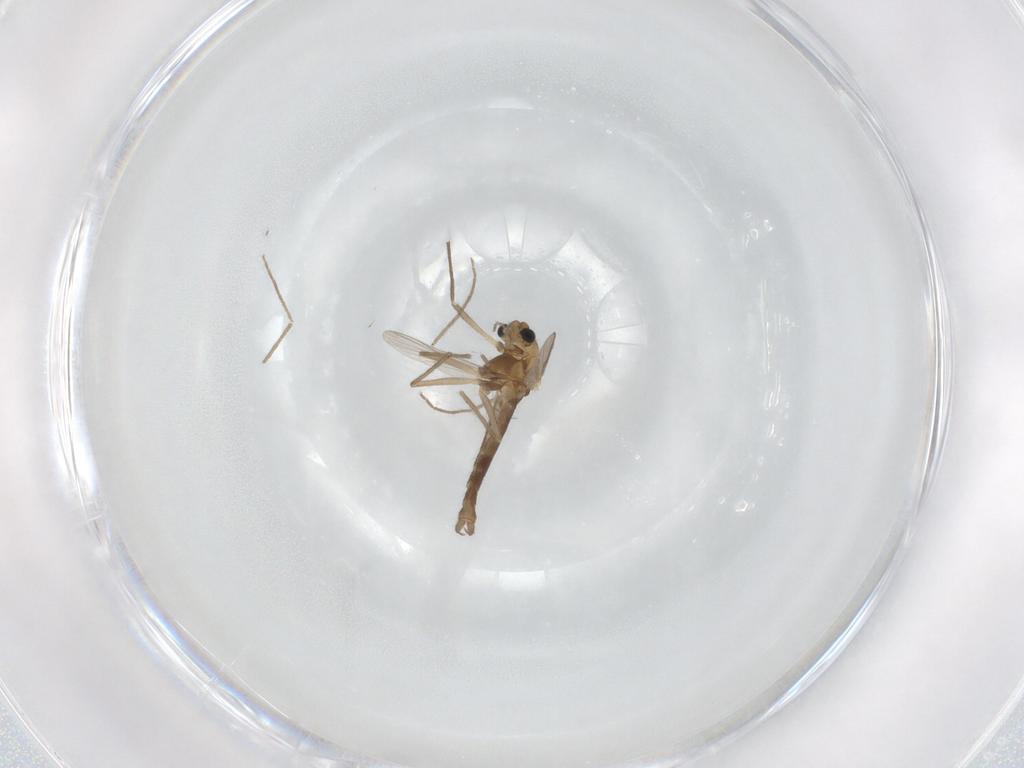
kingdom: Animalia
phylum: Arthropoda
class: Insecta
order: Diptera
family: Chironomidae
